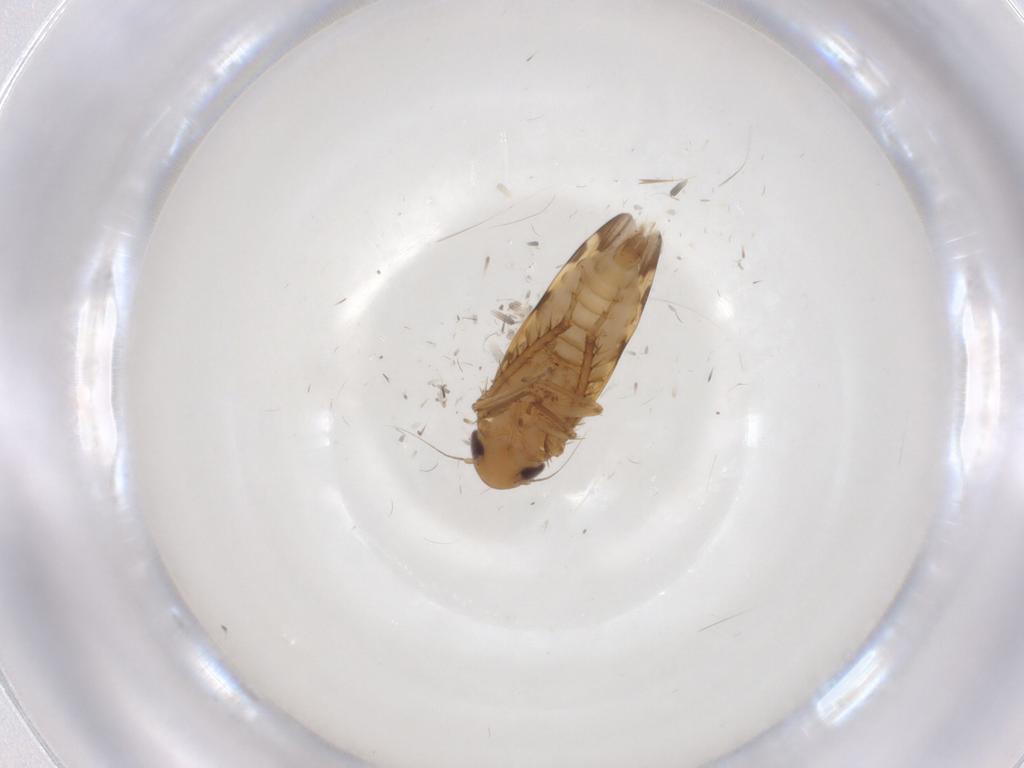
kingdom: Animalia
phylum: Arthropoda
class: Insecta
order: Hemiptera
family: Cicadellidae
